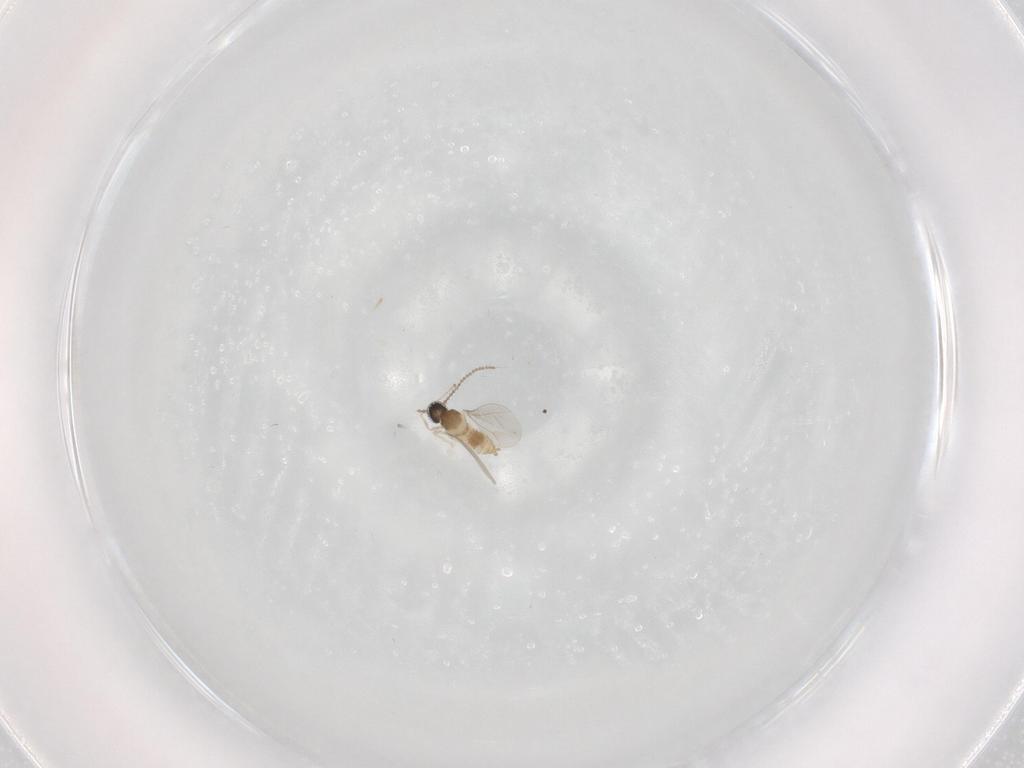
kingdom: Animalia
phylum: Arthropoda
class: Insecta
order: Diptera
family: Cecidomyiidae
